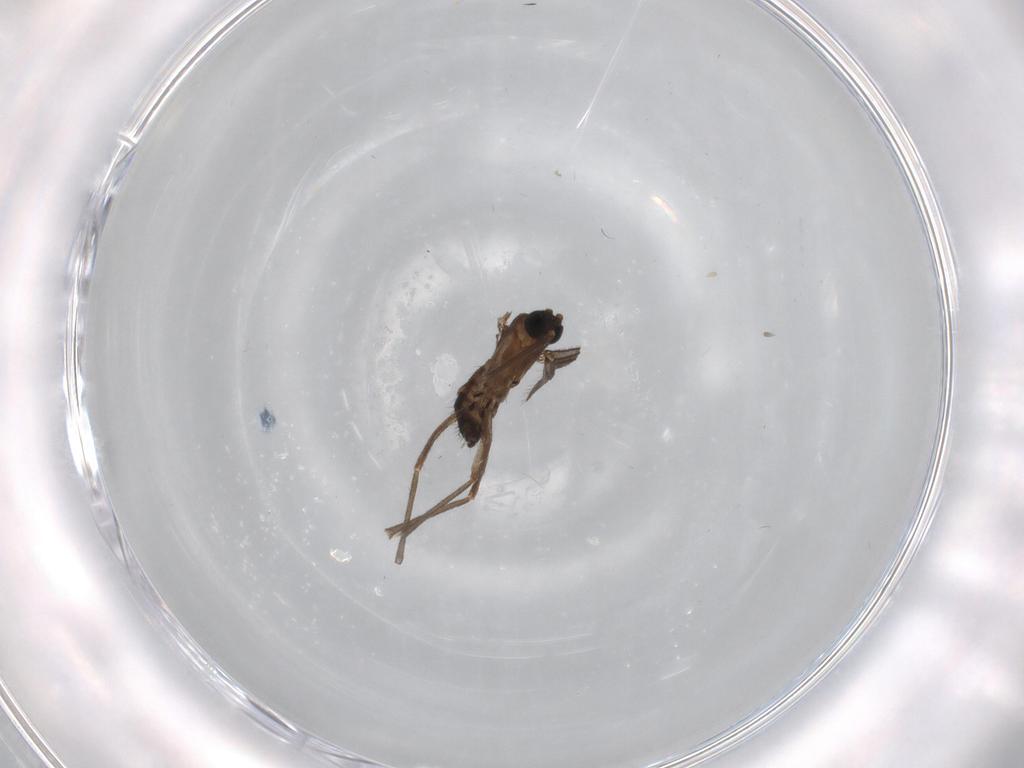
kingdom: Animalia
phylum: Arthropoda
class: Insecta
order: Diptera
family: Sciaridae
